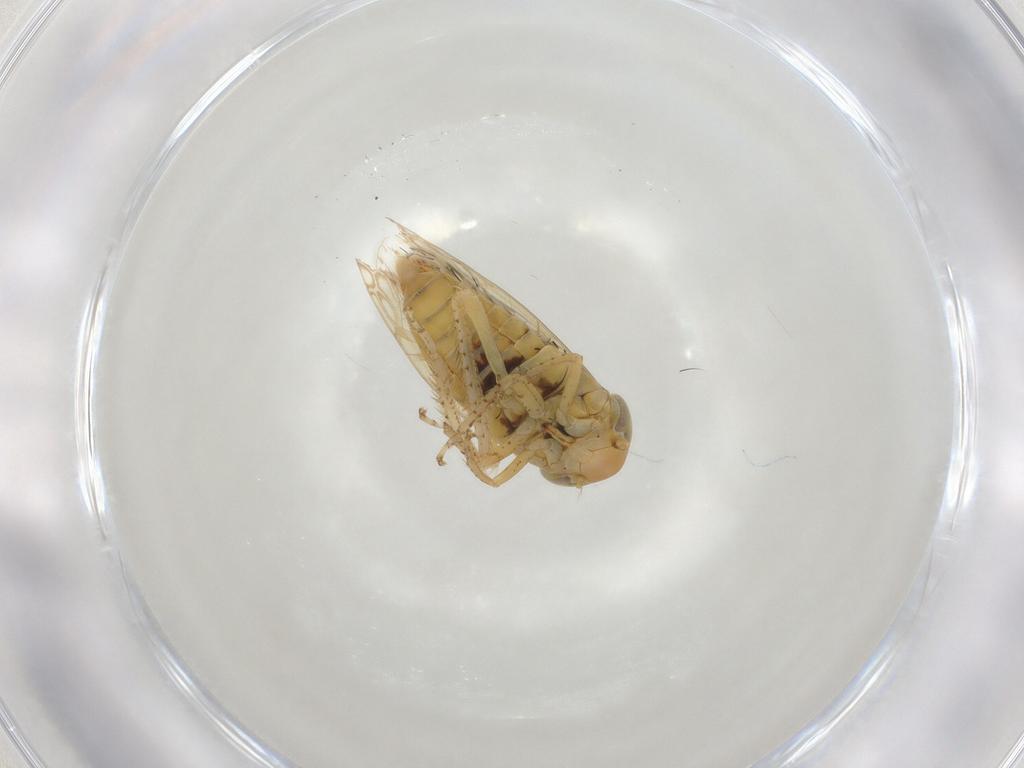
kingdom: Animalia
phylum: Arthropoda
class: Insecta
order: Hemiptera
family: Cicadellidae
